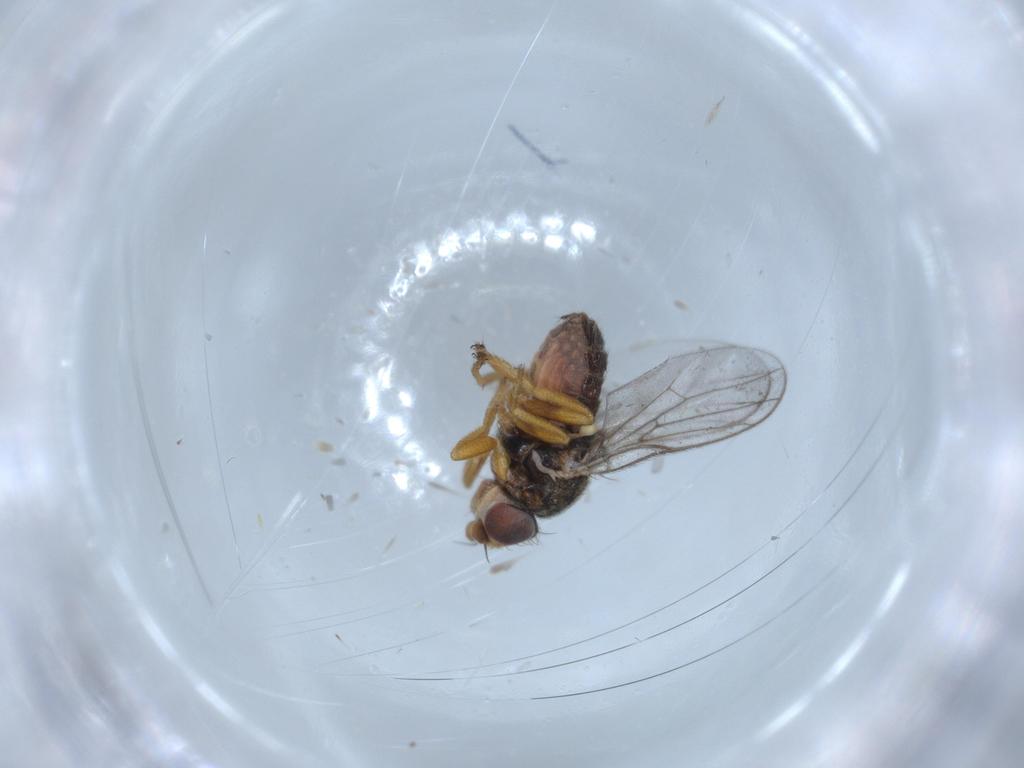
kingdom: Animalia
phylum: Arthropoda
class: Insecta
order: Diptera
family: Chloropidae
